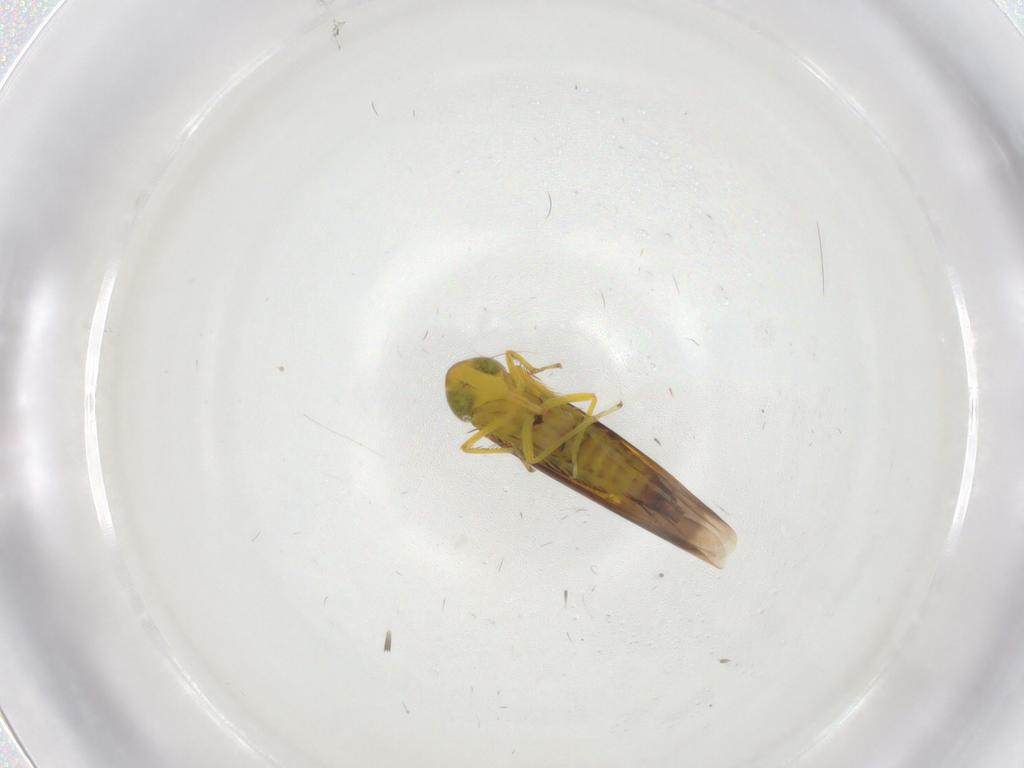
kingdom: Animalia
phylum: Arthropoda
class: Insecta
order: Hemiptera
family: Cicadellidae
